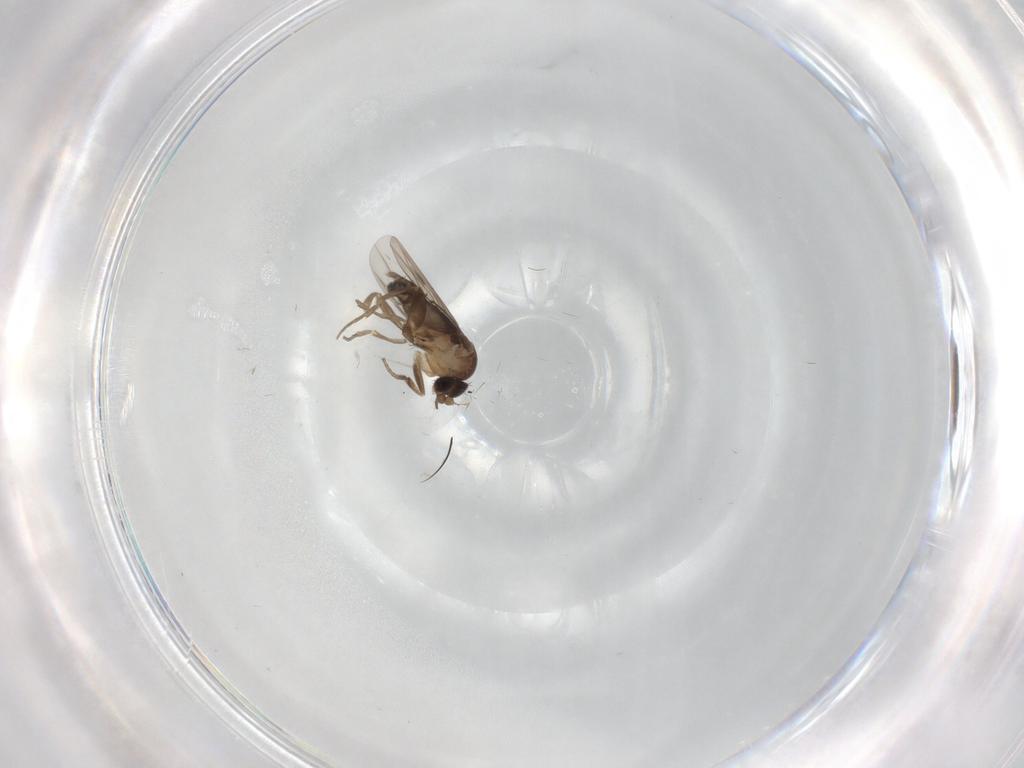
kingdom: Animalia
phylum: Arthropoda
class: Insecta
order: Diptera
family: Phoridae
